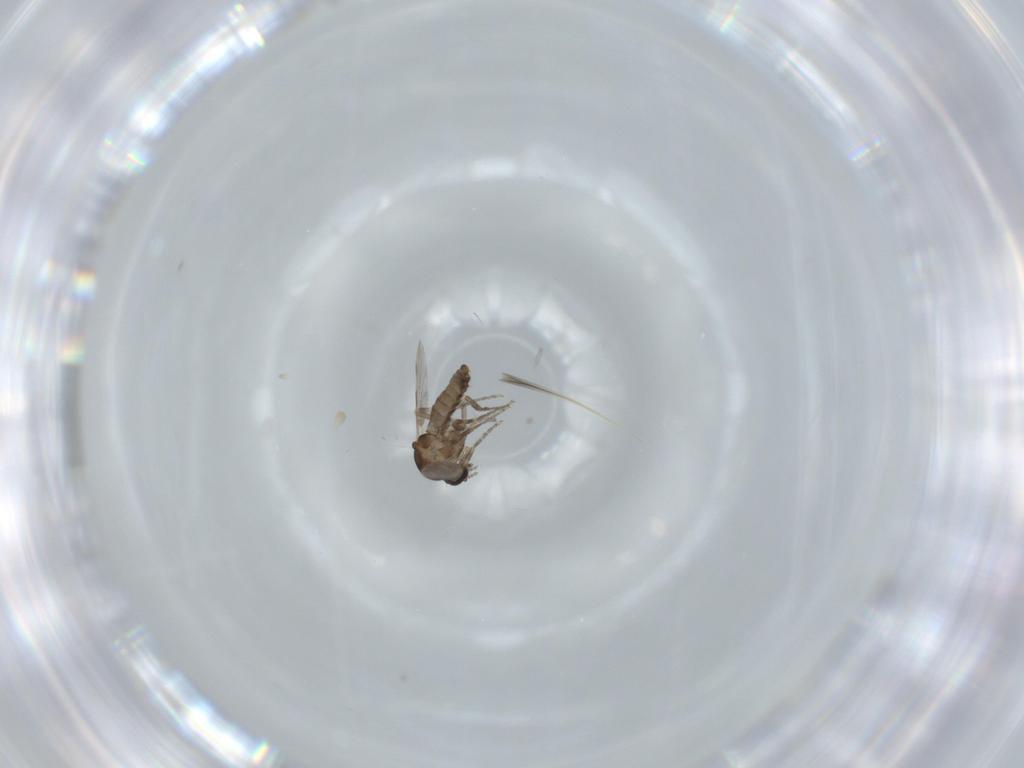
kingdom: Animalia
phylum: Arthropoda
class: Insecta
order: Diptera
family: Ceratopogonidae
